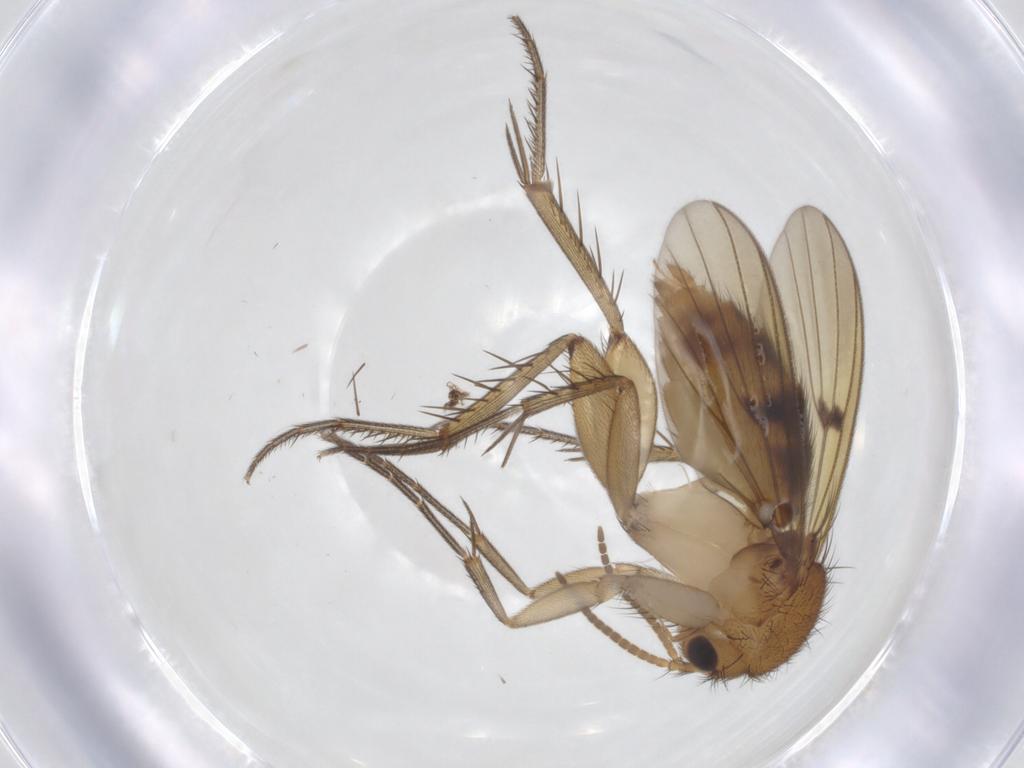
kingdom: Animalia
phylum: Arthropoda
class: Insecta
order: Diptera
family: Mycetophilidae
